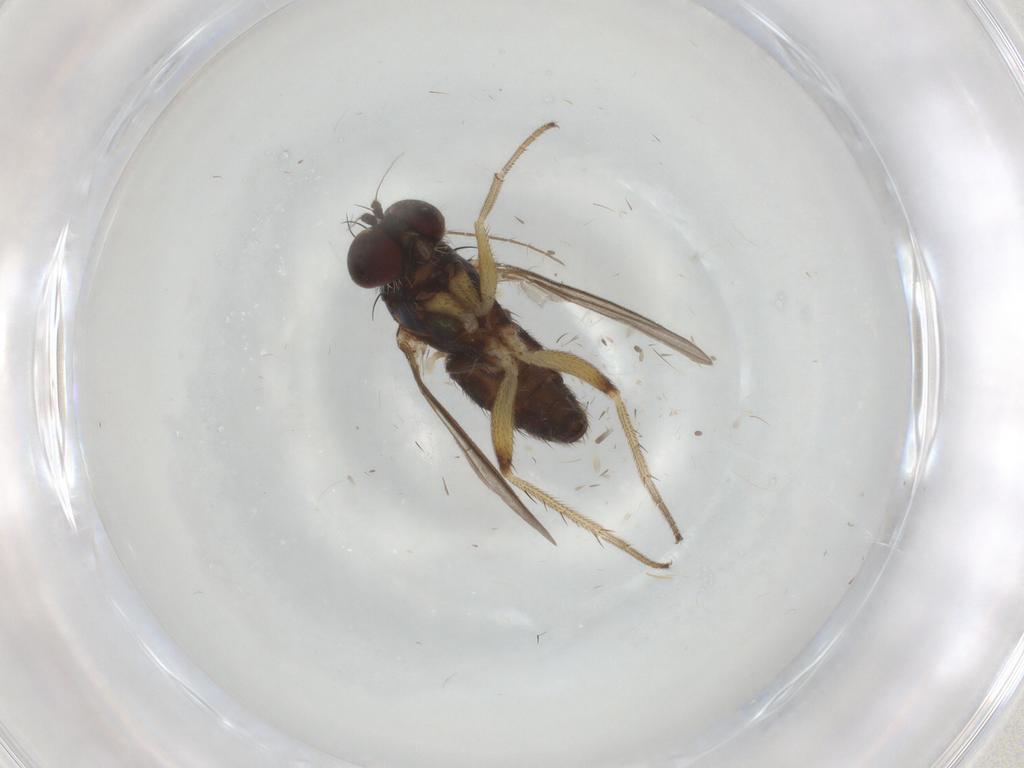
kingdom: Animalia
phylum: Arthropoda
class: Insecta
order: Diptera
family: Dolichopodidae
